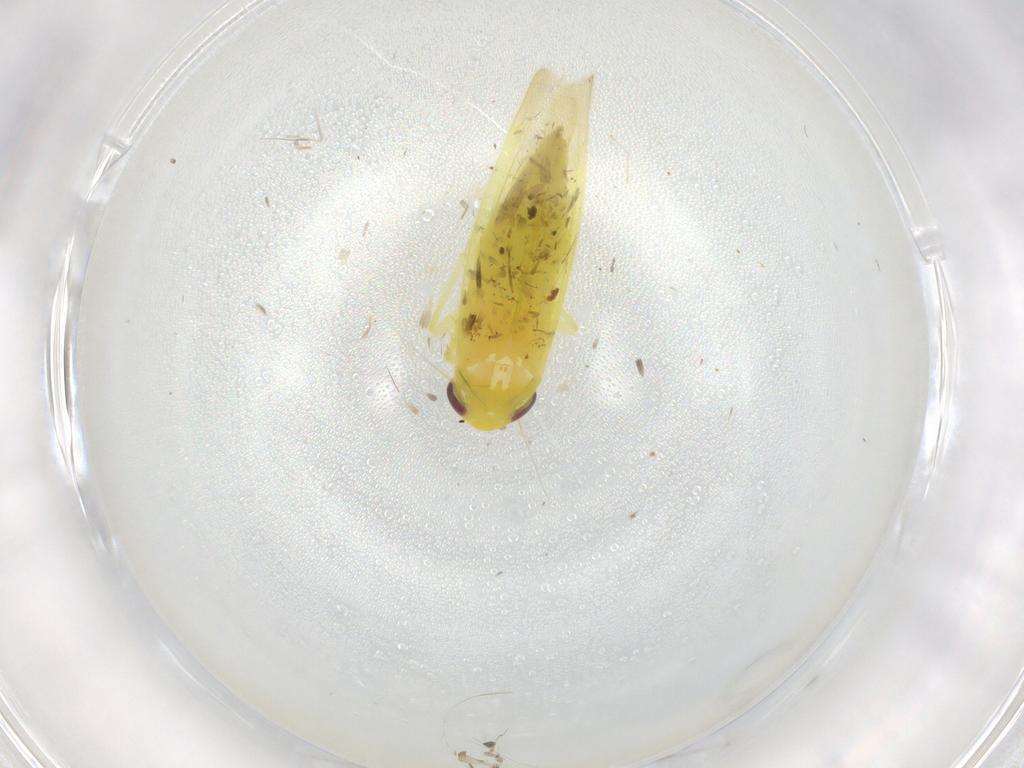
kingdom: Animalia
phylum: Arthropoda
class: Insecta
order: Hemiptera
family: Cicadellidae
